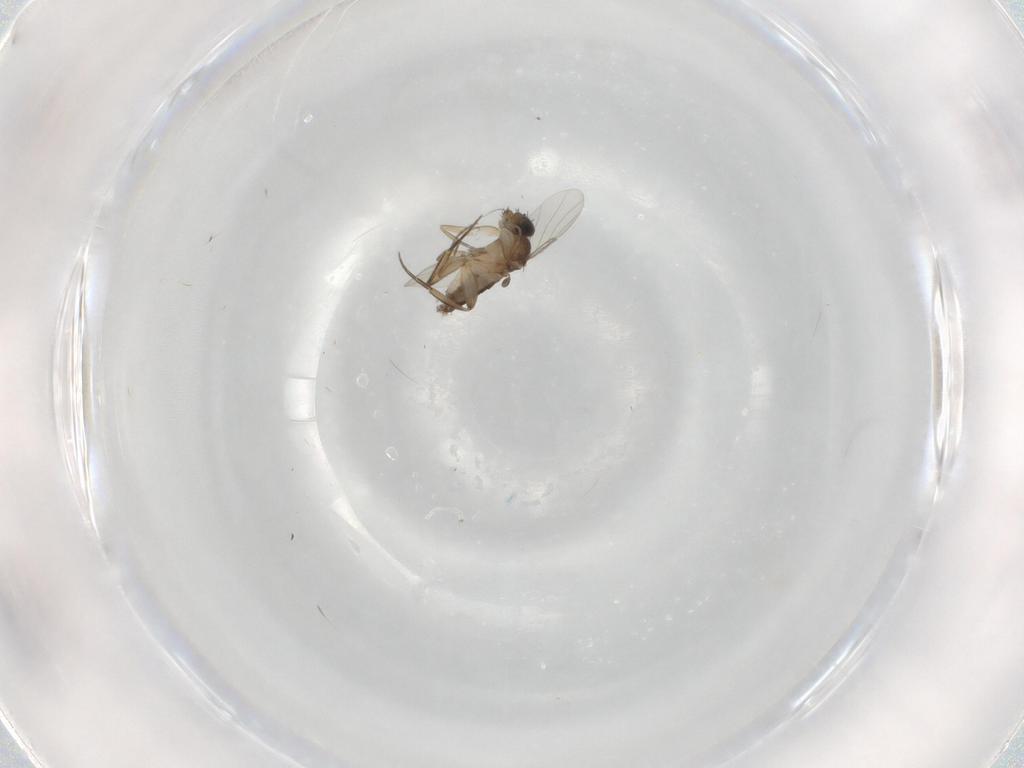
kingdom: Animalia
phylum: Arthropoda
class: Insecta
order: Diptera
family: Phoridae
